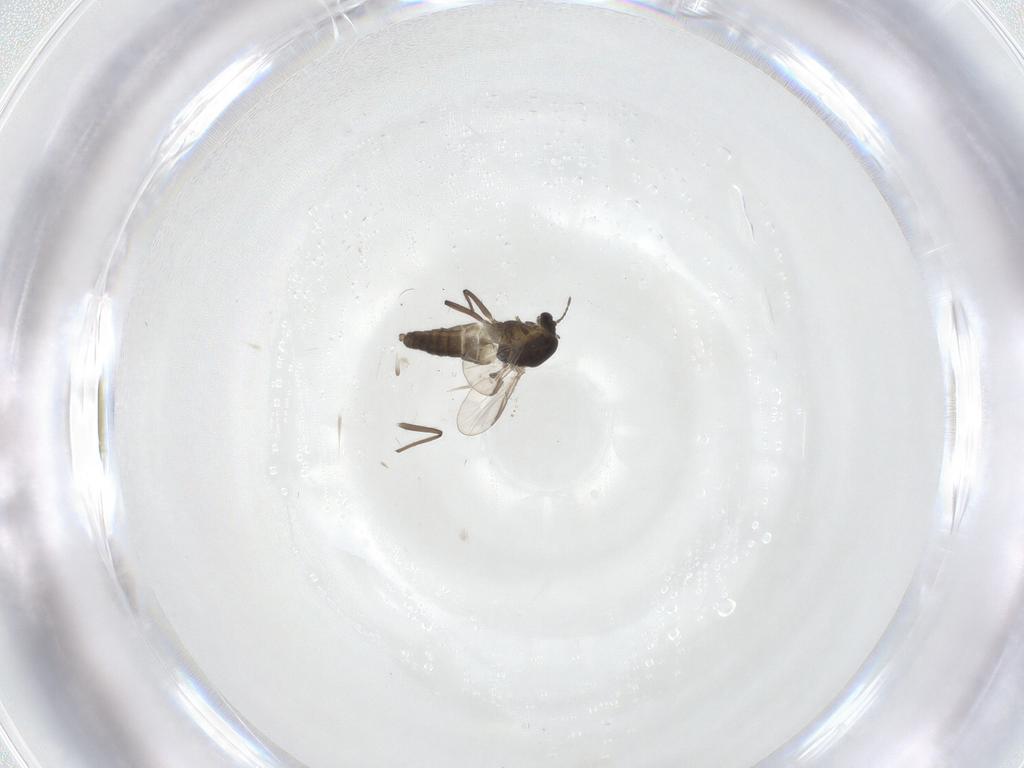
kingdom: Animalia
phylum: Arthropoda
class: Insecta
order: Diptera
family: Chironomidae
